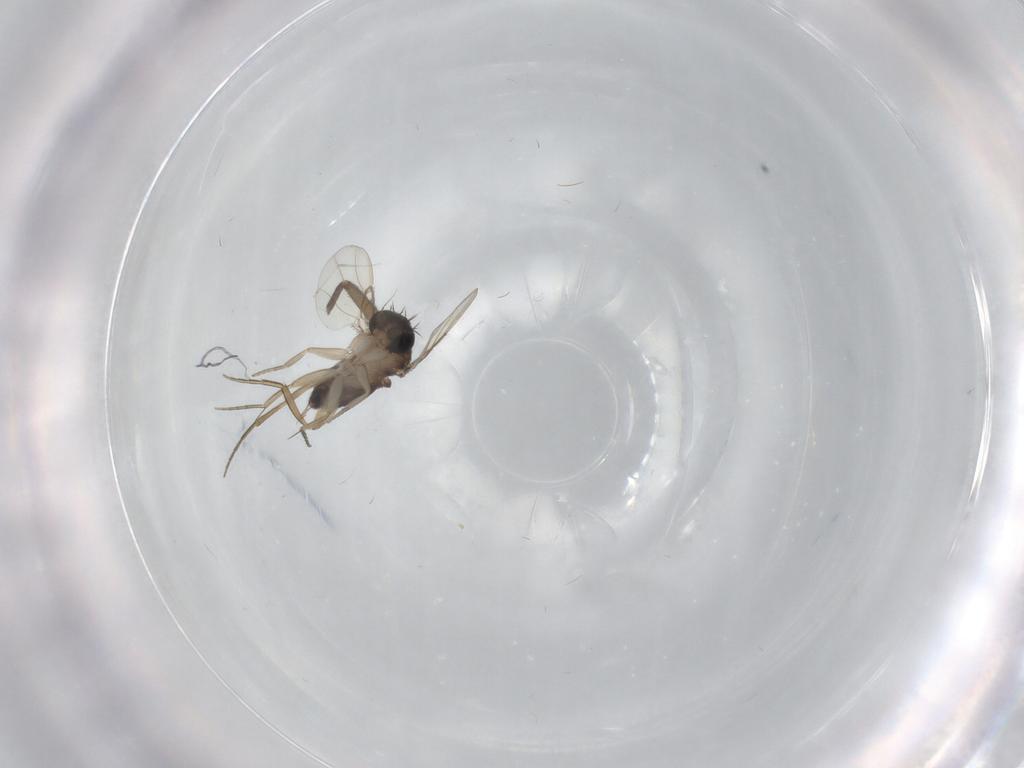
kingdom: Animalia
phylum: Arthropoda
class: Insecta
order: Diptera
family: Phoridae
